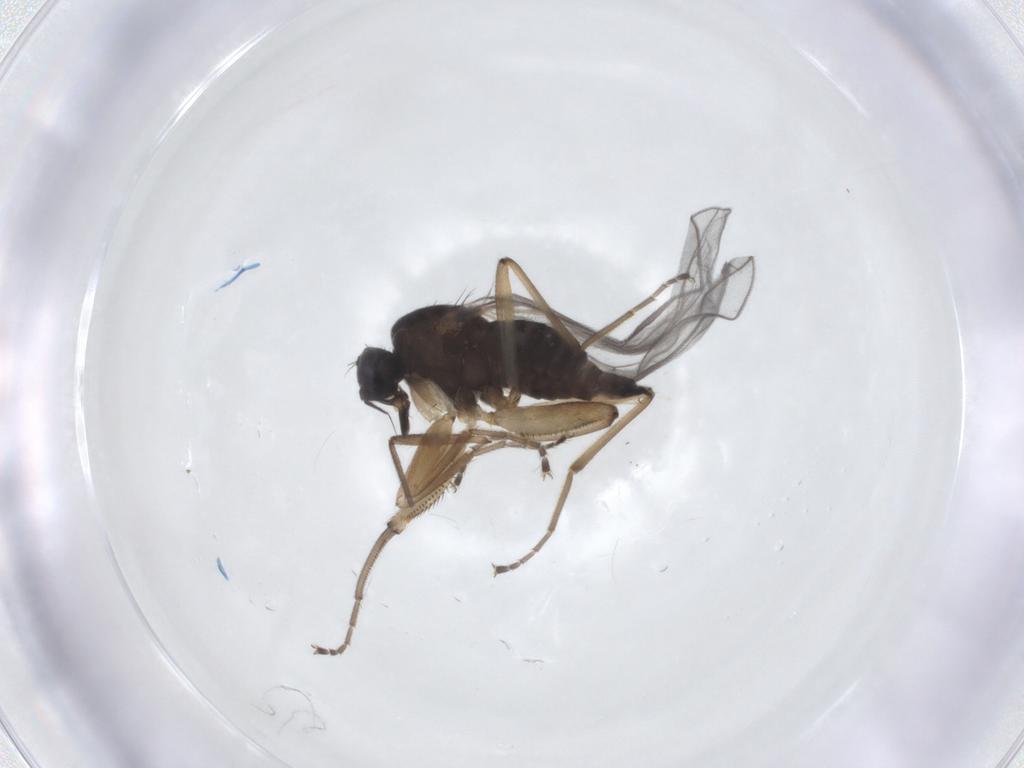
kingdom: Animalia
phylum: Arthropoda
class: Insecta
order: Diptera
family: Hybotidae
